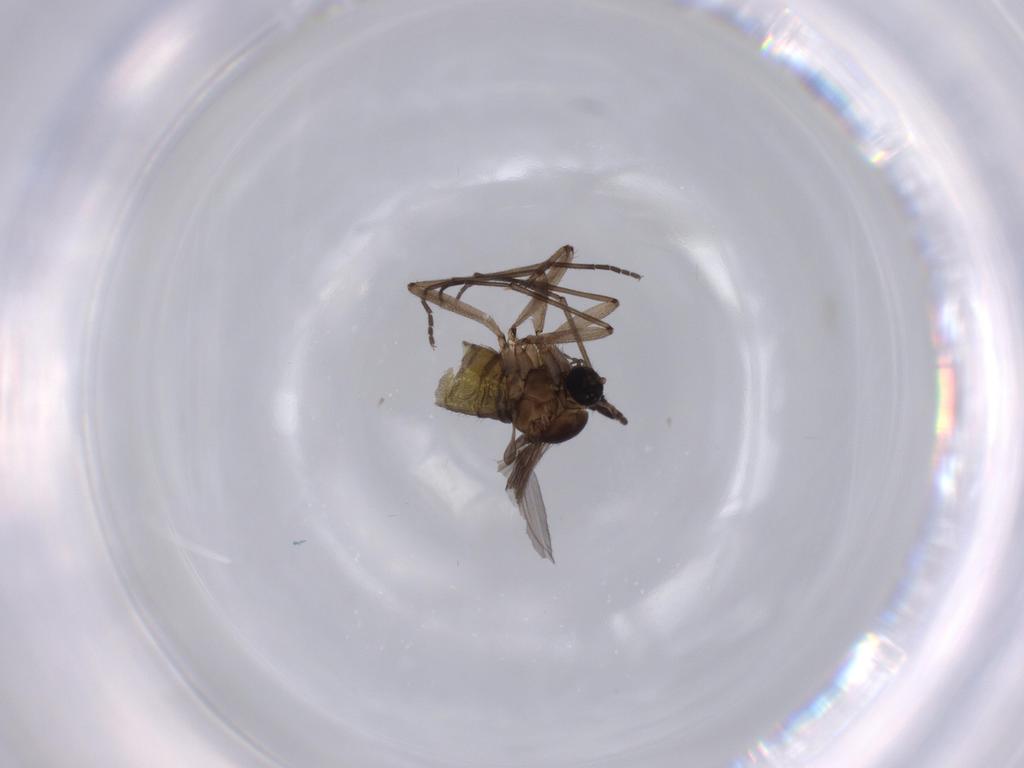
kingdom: Animalia
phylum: Arthropoda
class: Insecta
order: Diptera
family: Sciaridae
